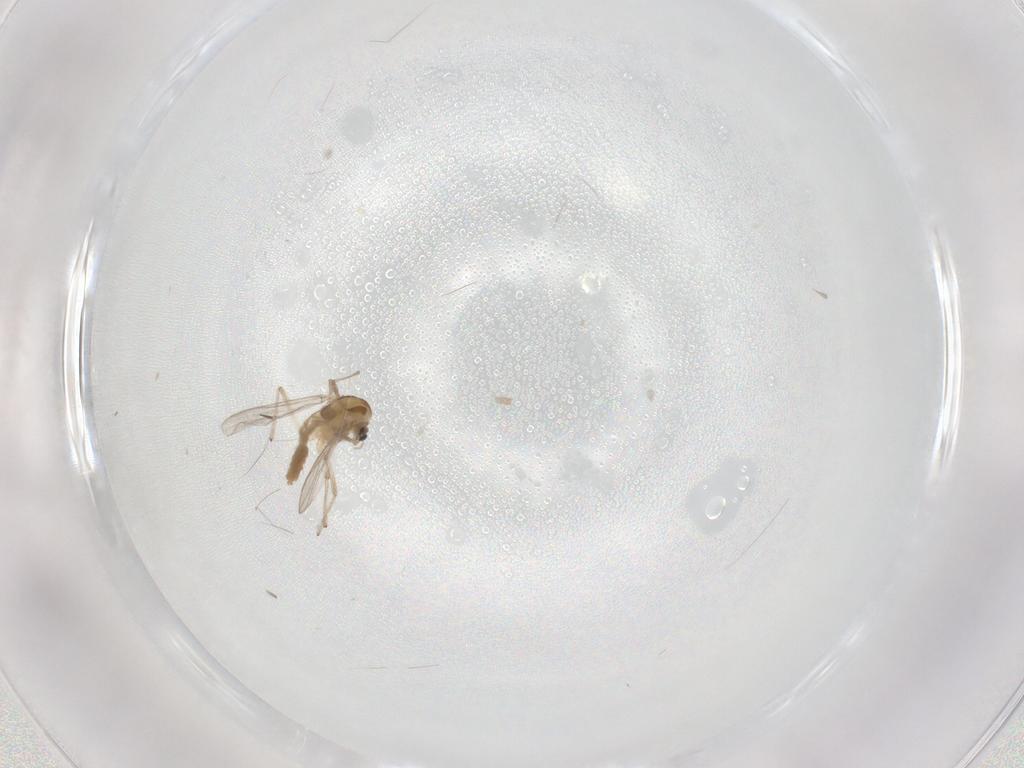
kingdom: Animalia
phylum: Arthropoda
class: Insecta
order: Diptera
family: Chironomidae
